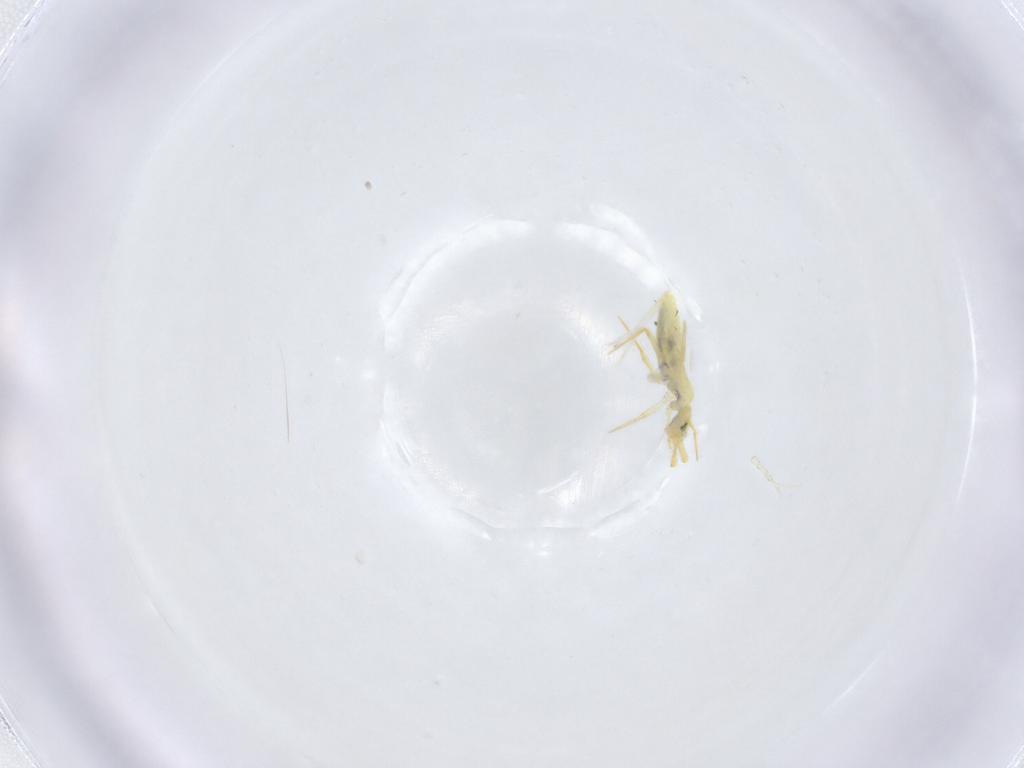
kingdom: Animalia
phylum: Arthropoda
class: Collembola
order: Entomobryomorpha
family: Paronellidae
